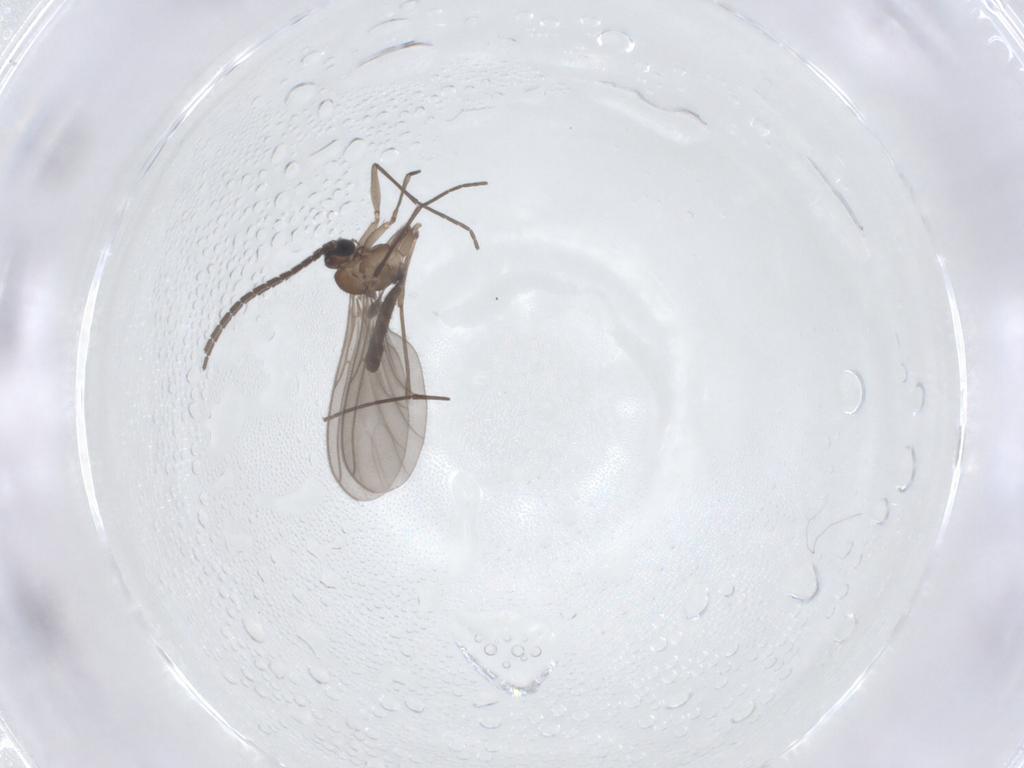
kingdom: Animalia
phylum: Arthropoda
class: Insecta
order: Diptera
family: Sciaridae
